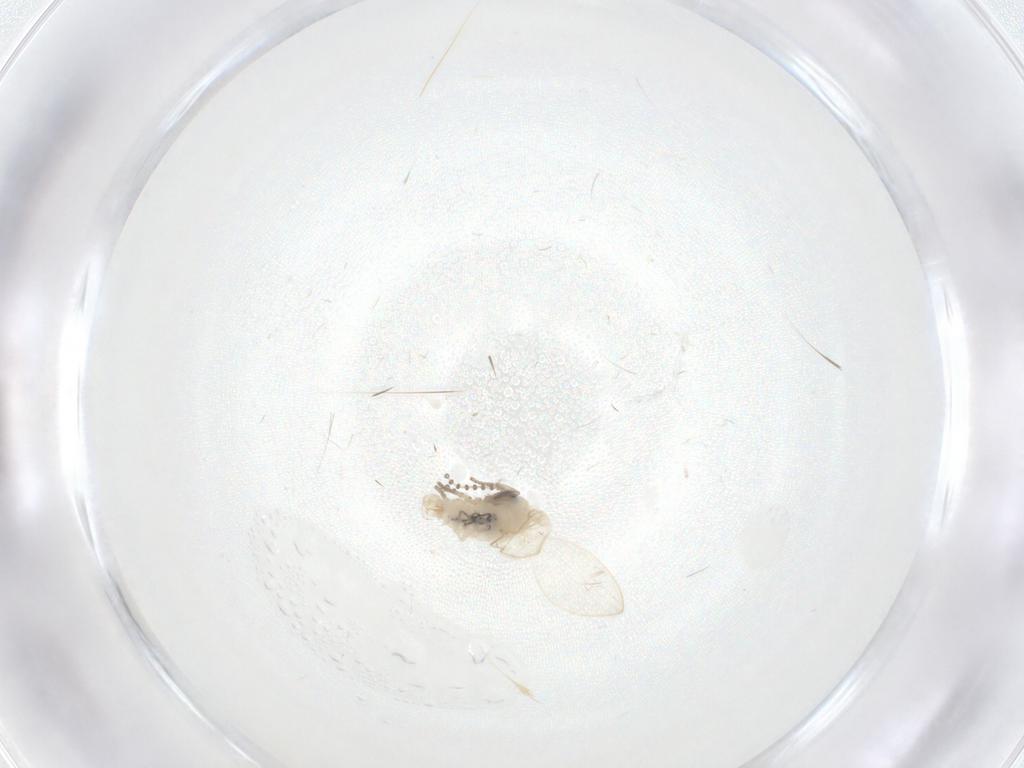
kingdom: Animalia
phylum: Arthropoda
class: Insecta
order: Diptera
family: Psychodidae
